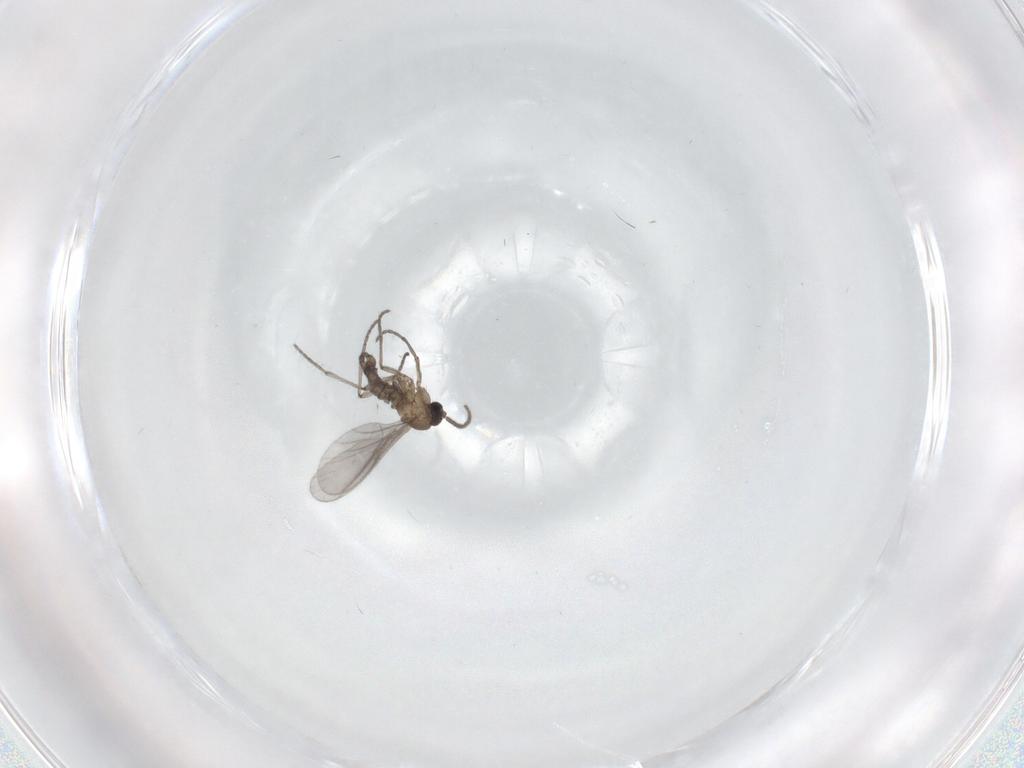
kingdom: Animalia
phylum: Arthropoda
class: Insecta
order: Diptera
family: Sciaridae
